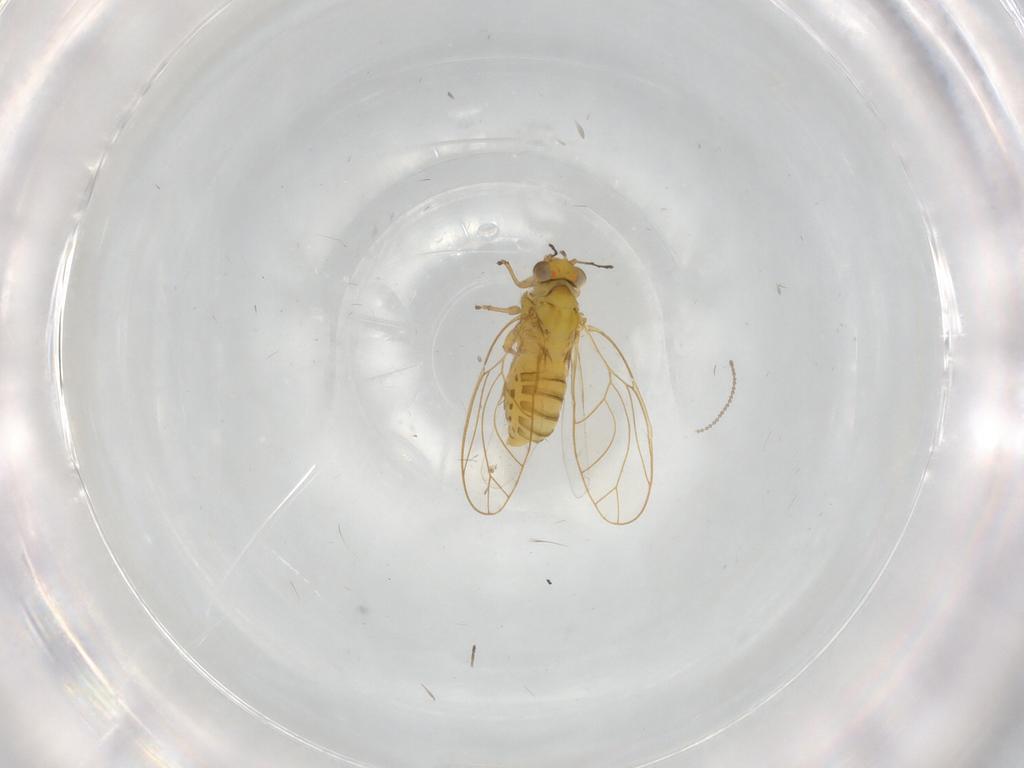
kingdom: Animalia
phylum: Arthropoda
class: Insecta
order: Hemiptera
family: Psylloidea_incertae_sedis
